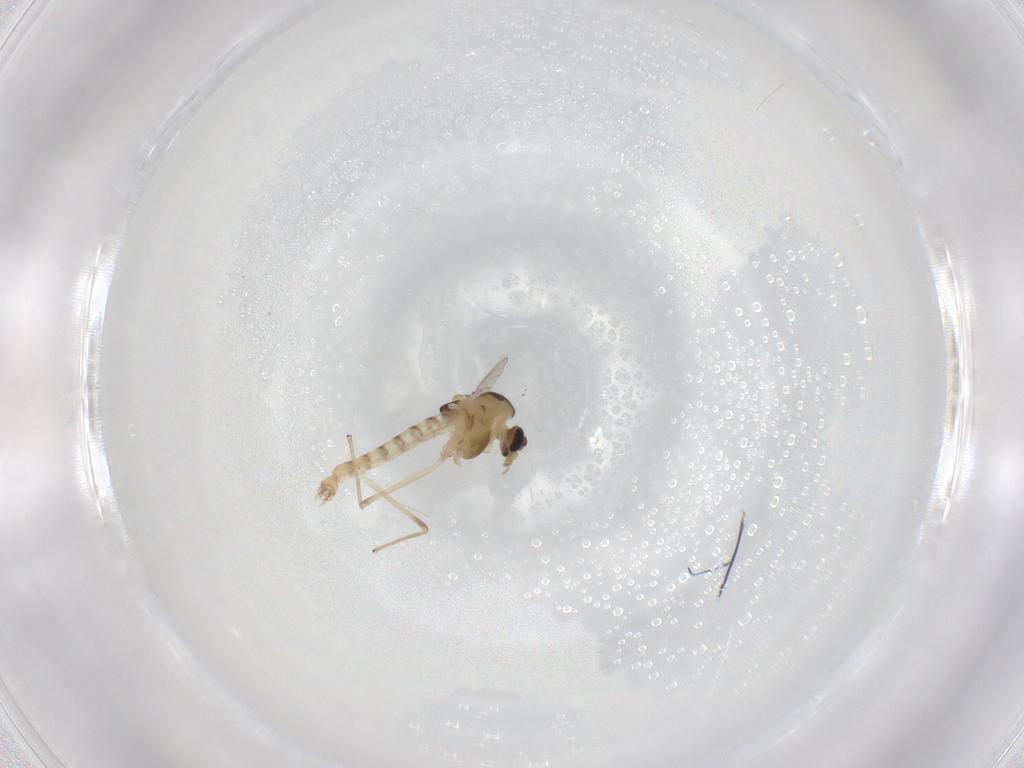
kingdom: Animalia
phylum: Arthropoda
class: Insecta
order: Diptera
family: Chironomidae
